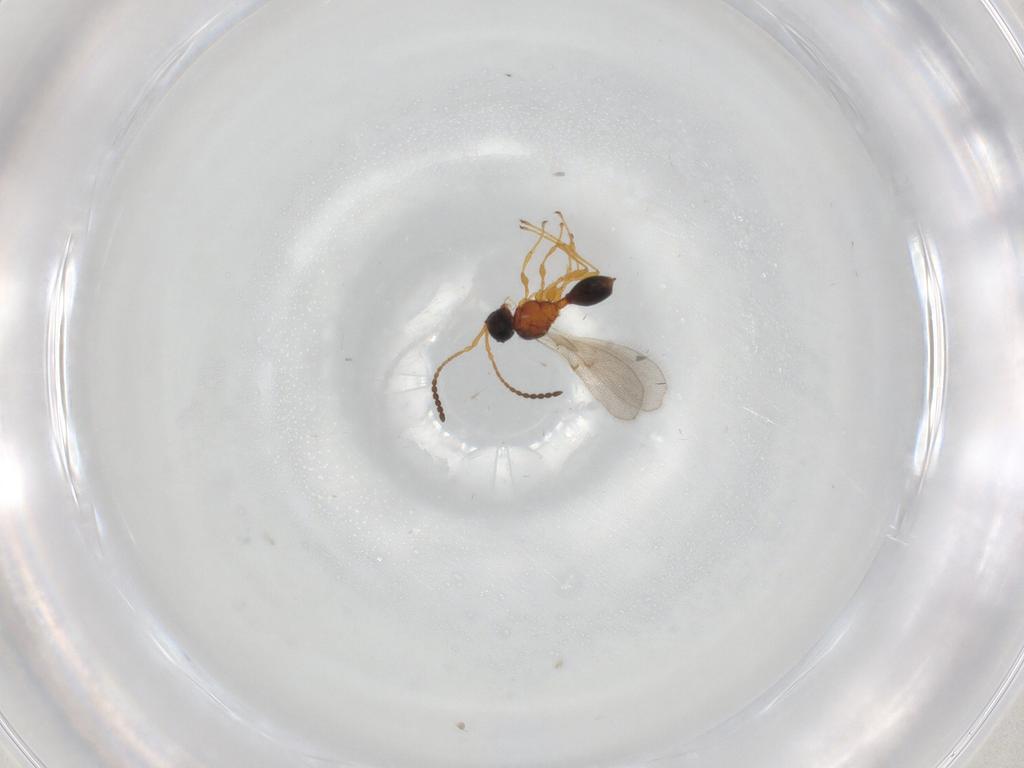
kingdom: Animalia
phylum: Arthropoda
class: Insecta
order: Hymenoptera
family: Diapriidae
